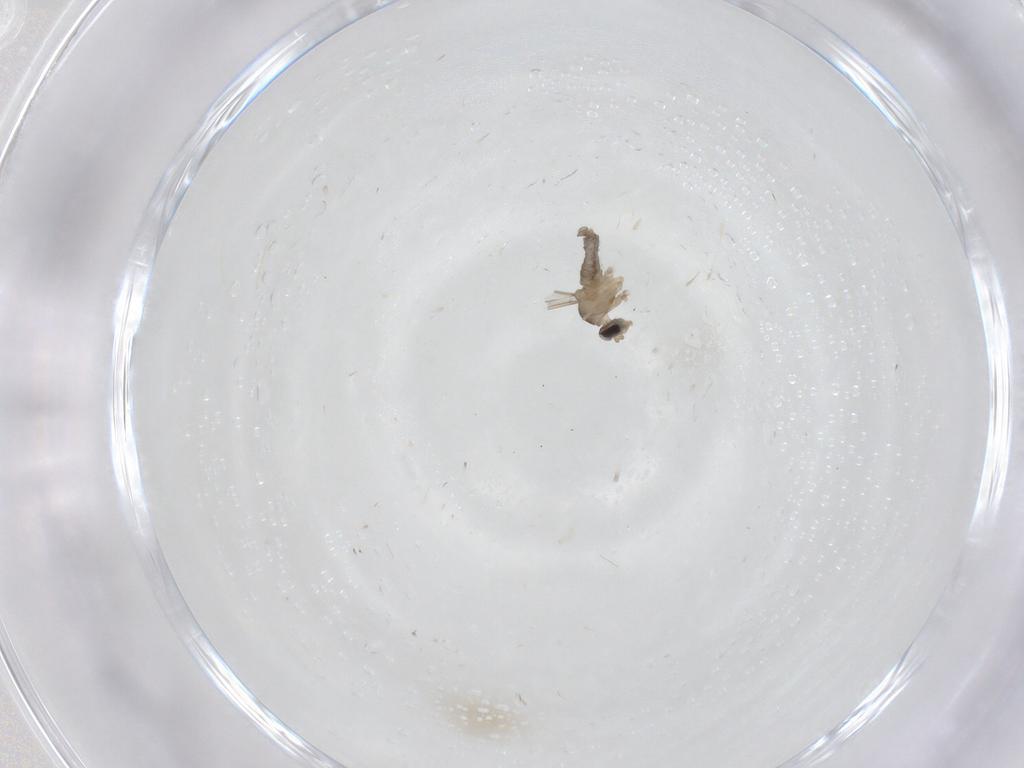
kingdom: Animalia
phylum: Arthropoda
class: Insecta
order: Diptera
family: Cecidomyiidae
